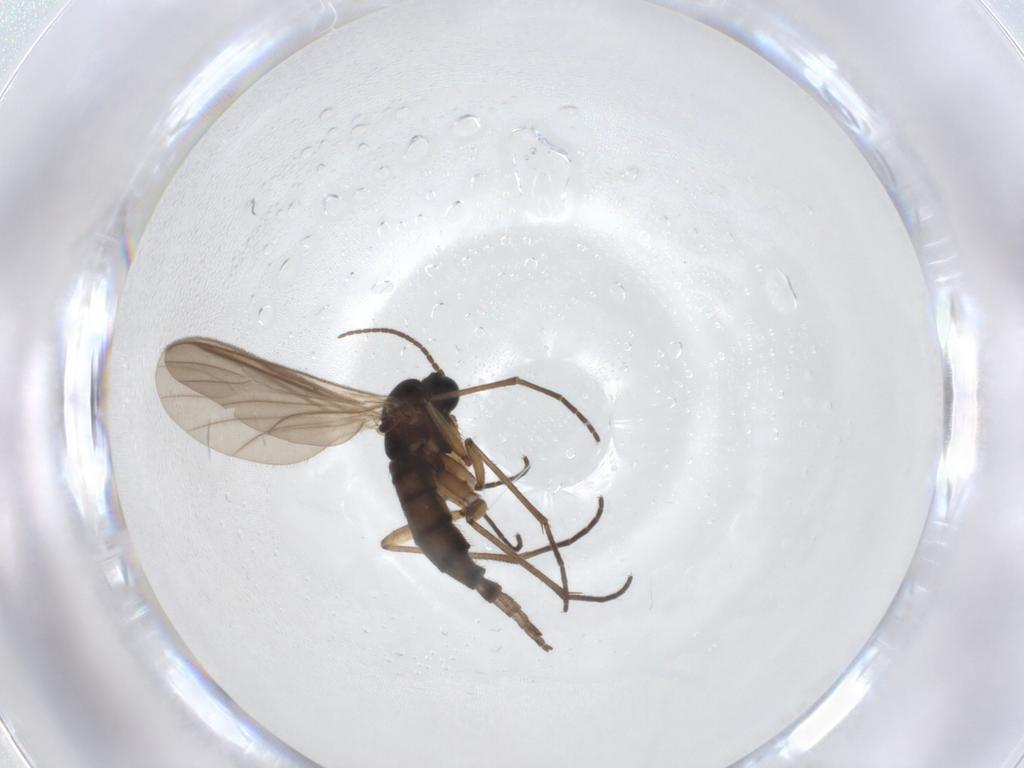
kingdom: Animalia
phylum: Arthropoda
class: Insecta
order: Diptera
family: Sciaridae
